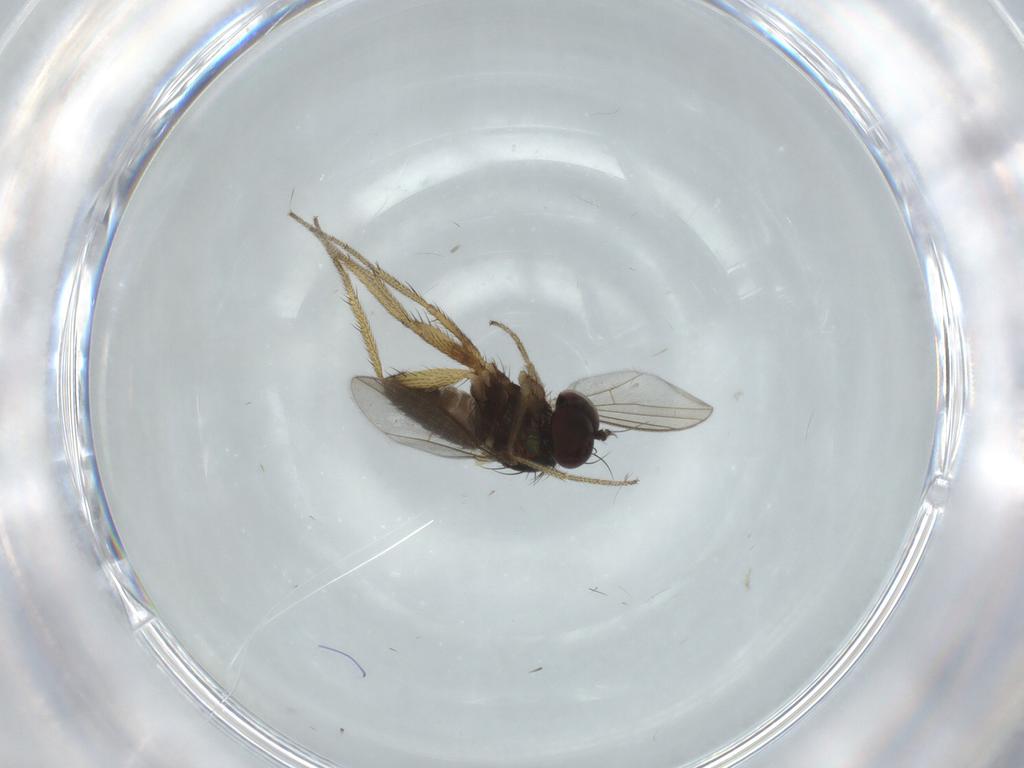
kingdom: Animalia
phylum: Arthropoda
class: Insecta
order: Diptera
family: Dolichopodidae
